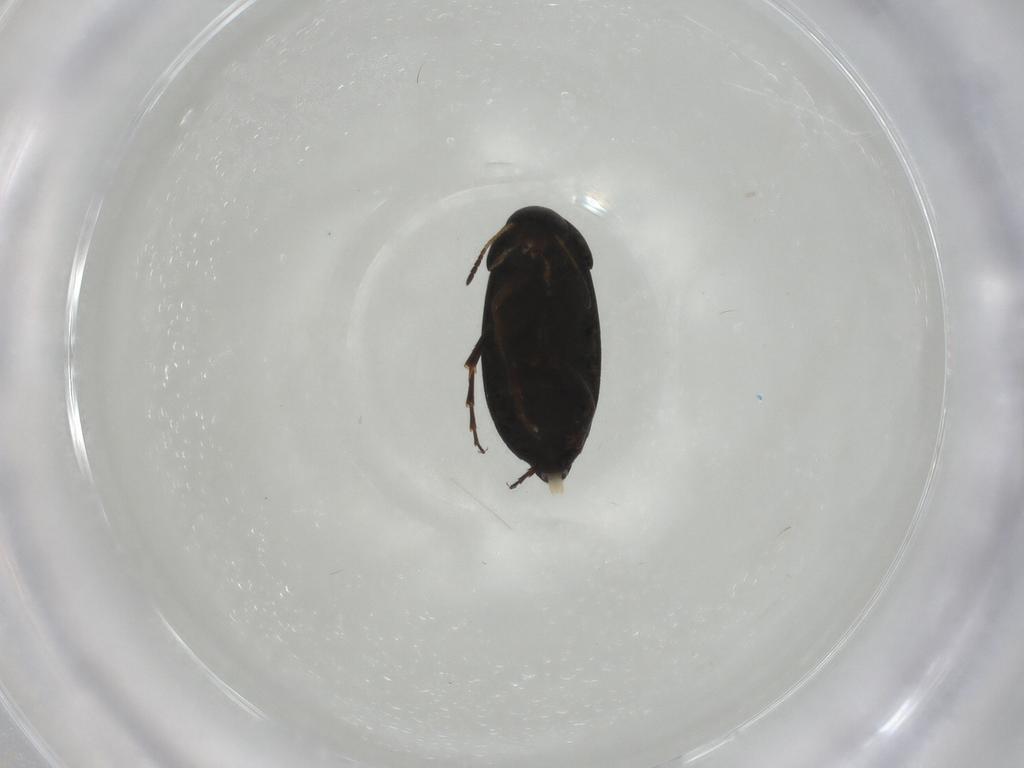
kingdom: Animalia
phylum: Arthropoda
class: Insecta
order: Coleoptera
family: Scraptiidae
